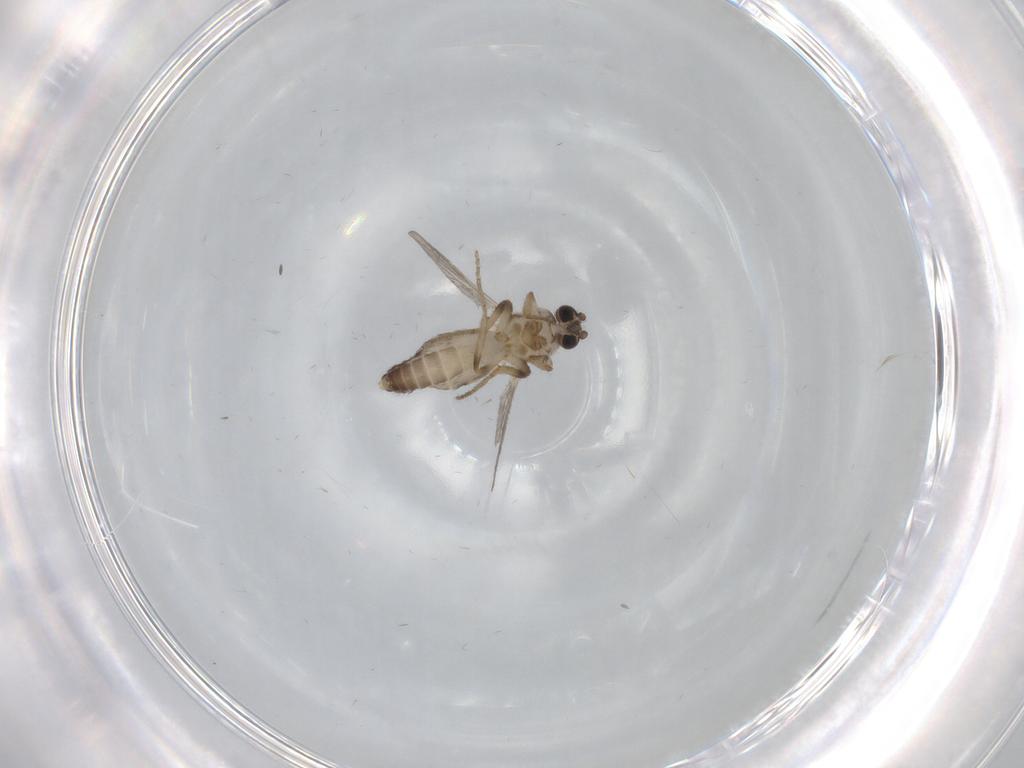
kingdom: Animalia
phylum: Arthropoda
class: Insecta
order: Diptera
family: Ceratopogonidae
